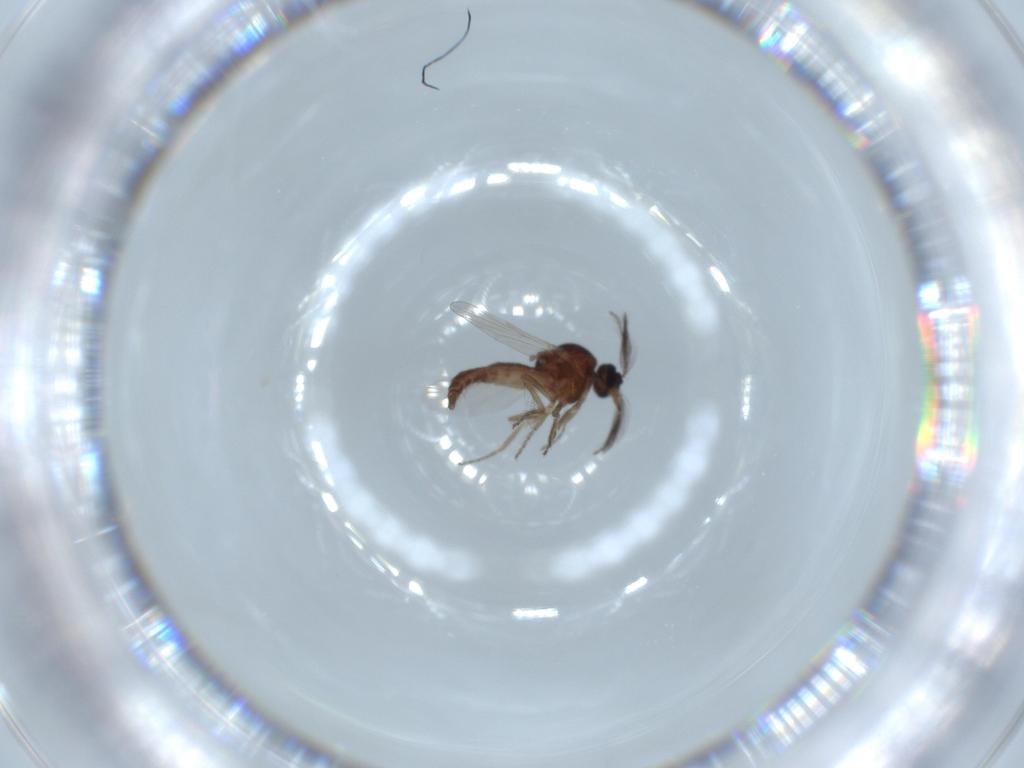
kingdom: Animalia
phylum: Arthropoda
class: Insecta
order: Diptera
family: Ceratopogonidae
